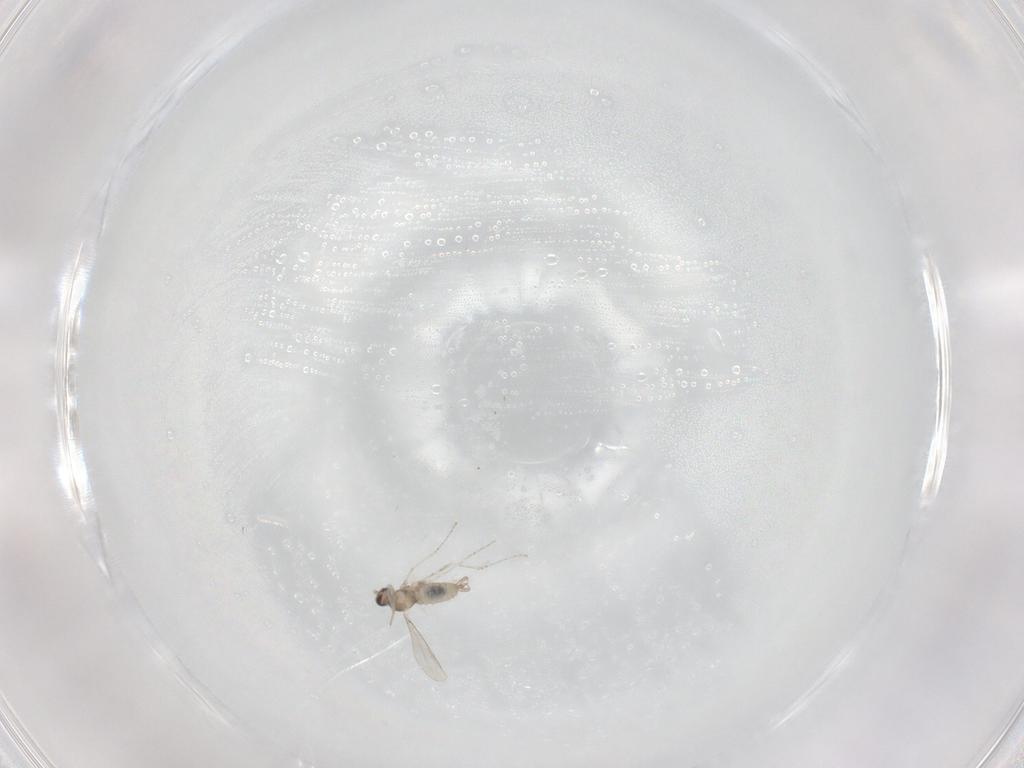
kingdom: Animalia
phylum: Arthropoda
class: Insecta
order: Diptera
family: Cecidomyiidae
